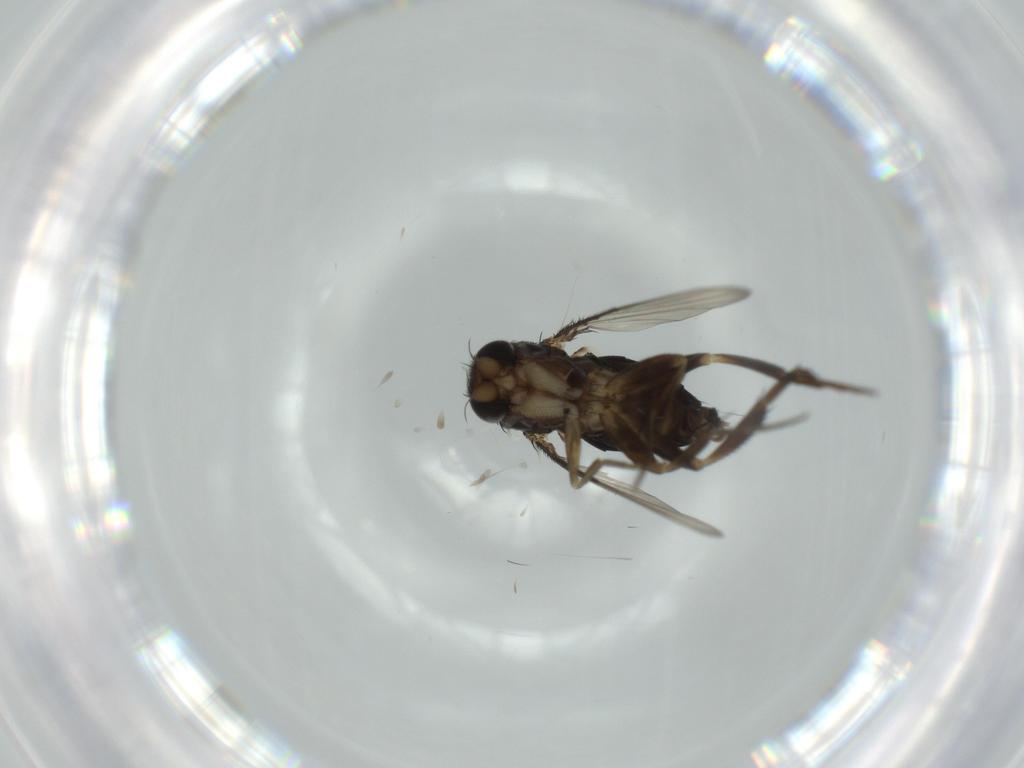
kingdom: Animalia
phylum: Arthropoda
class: Insecta
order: Diptera
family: Phoridae
